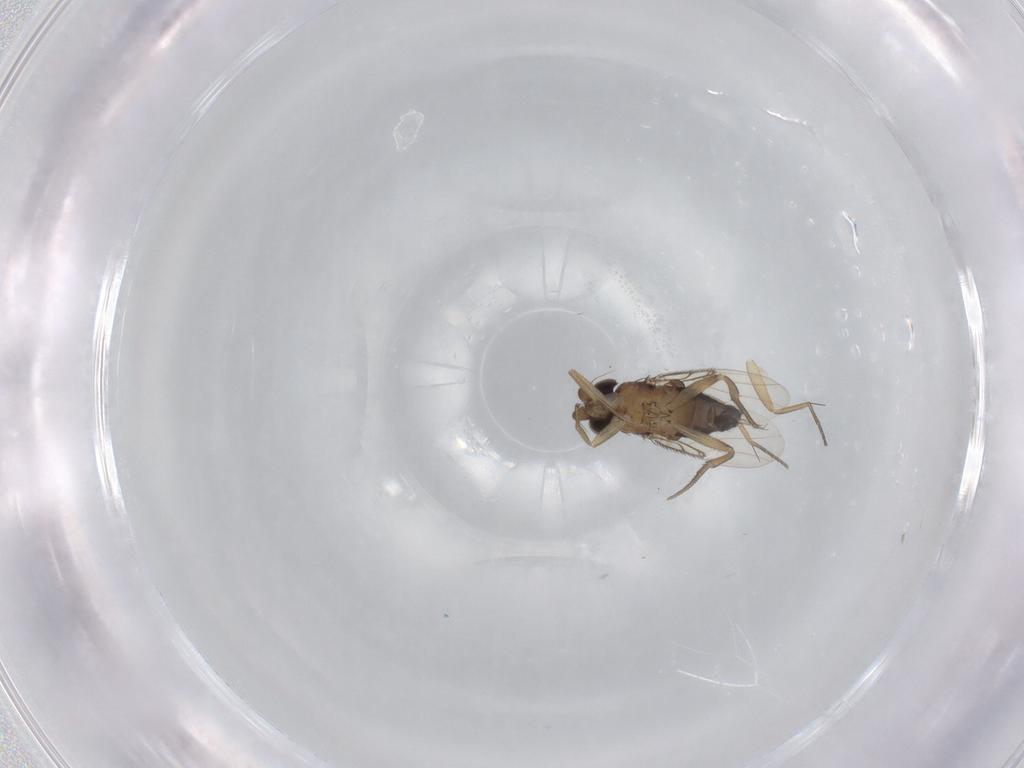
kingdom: Animalia
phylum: Arthropoda
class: Insecta
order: Diptera
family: Phoridae
